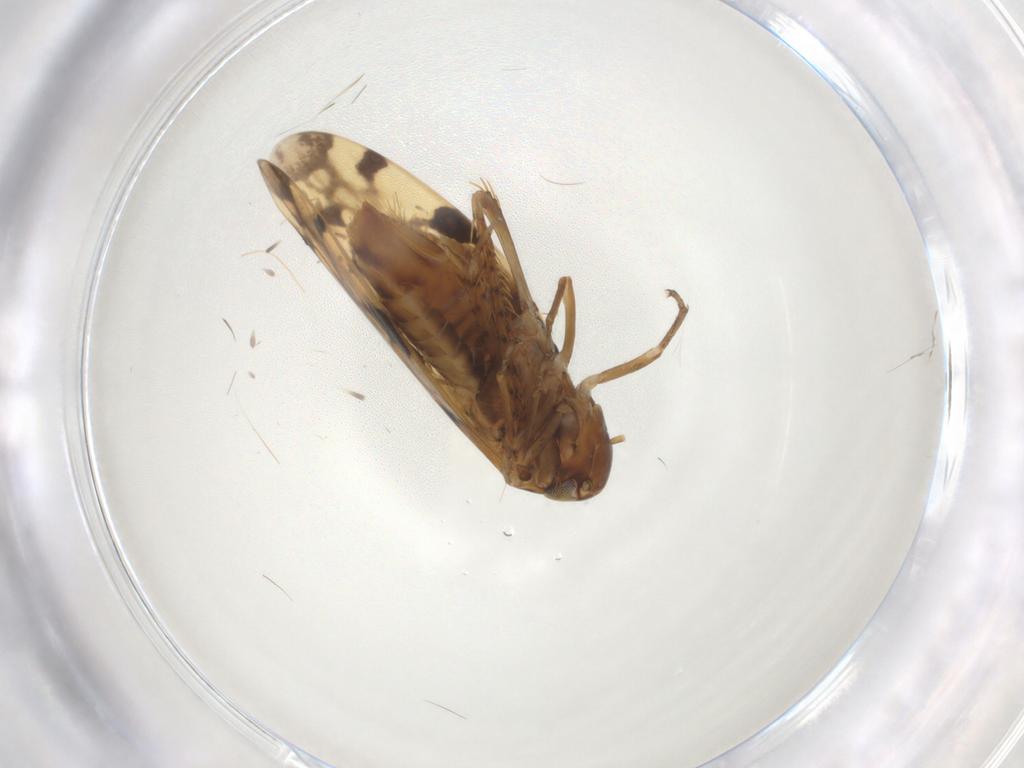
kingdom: Animalia
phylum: Arthropoda
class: Insecta
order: Hemiptera
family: Cicadellidae
